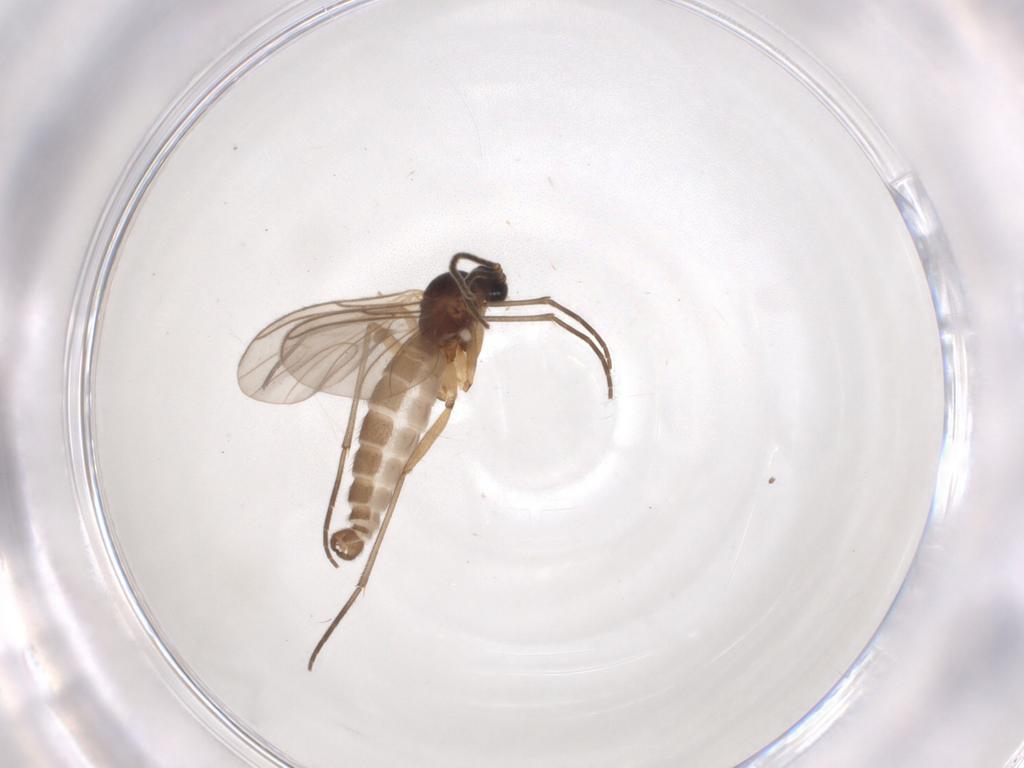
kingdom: Animalia
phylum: Arthropoda
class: Insecta
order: Diptera
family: Sciaridae
